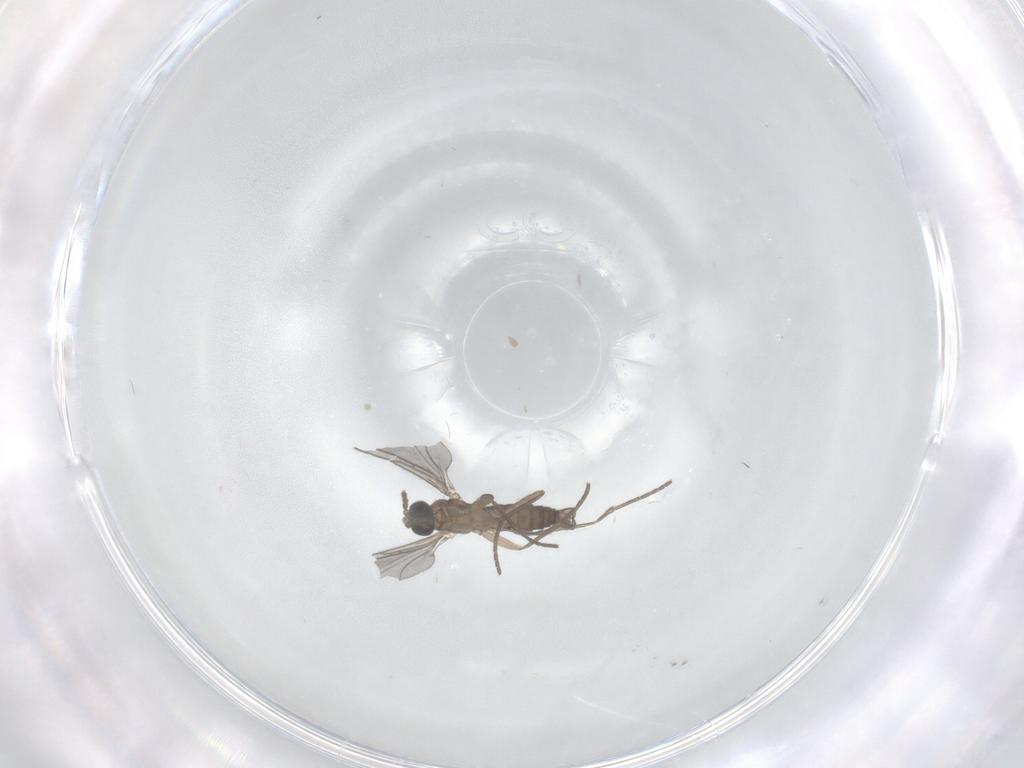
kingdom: Animalia
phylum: Arthropoda
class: Insecta
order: Diptera
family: Cecidomyiidae
